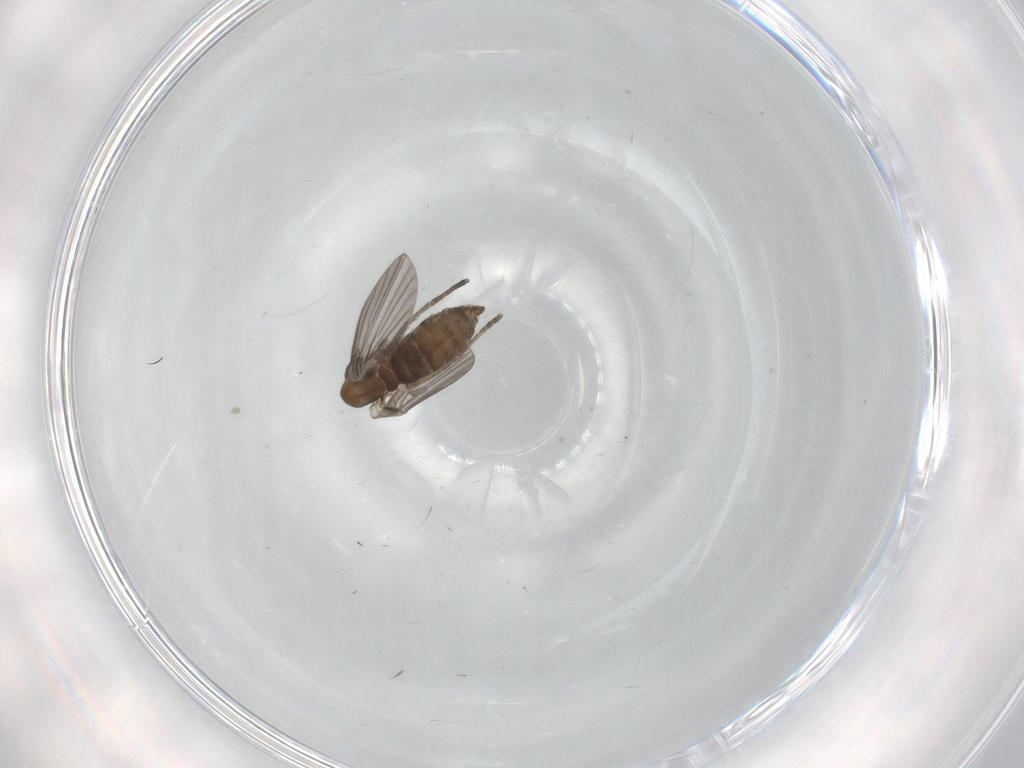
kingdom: Animalia
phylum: Arthropoda
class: Insecta
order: Diptera
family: Chironomidae
